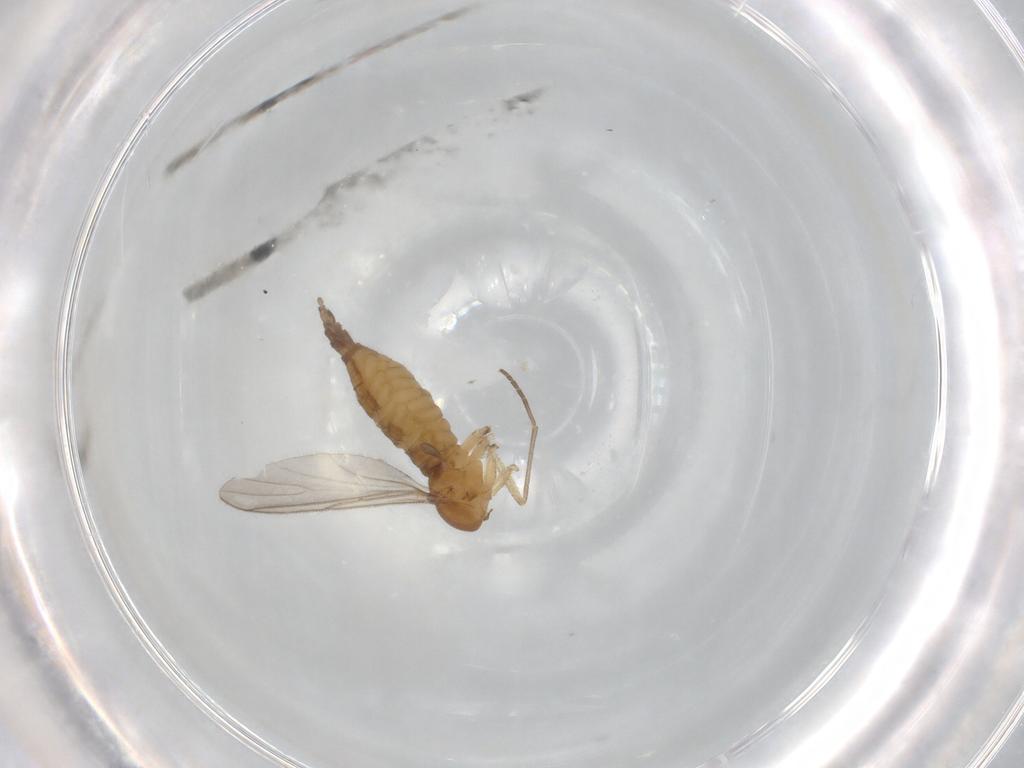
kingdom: Animalia
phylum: Arthropoda
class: Insecta
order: Diptera
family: Sciaridae
